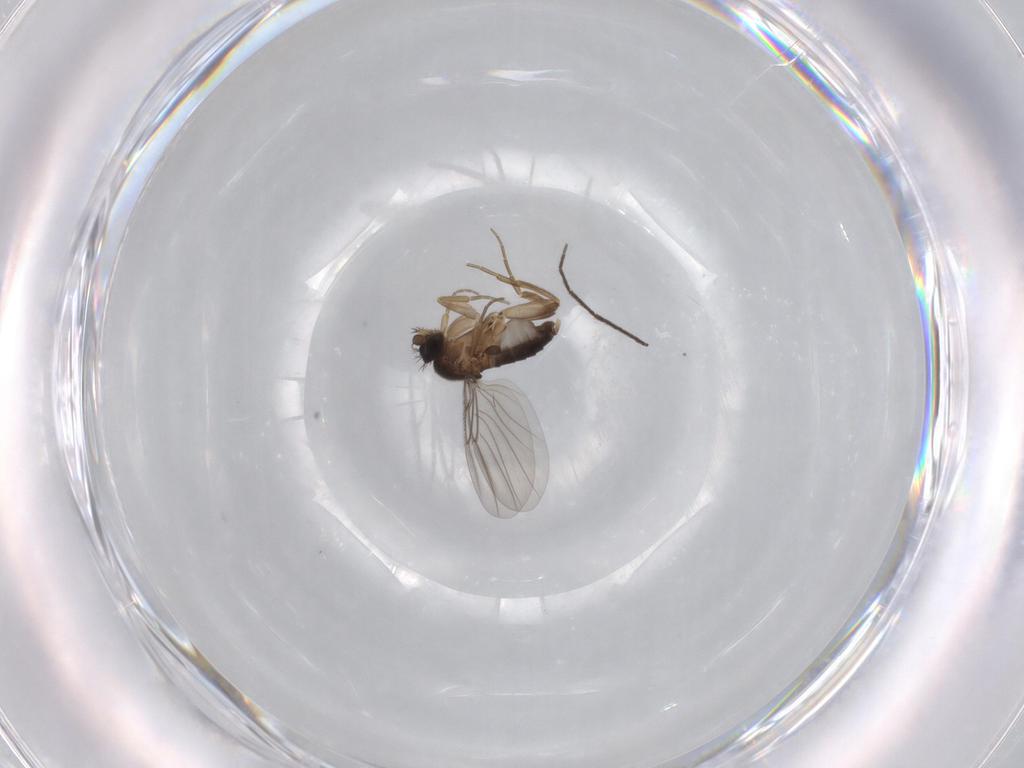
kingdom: Animalia
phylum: Arthropoda
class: Insecta
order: Diptera
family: Phoridae
